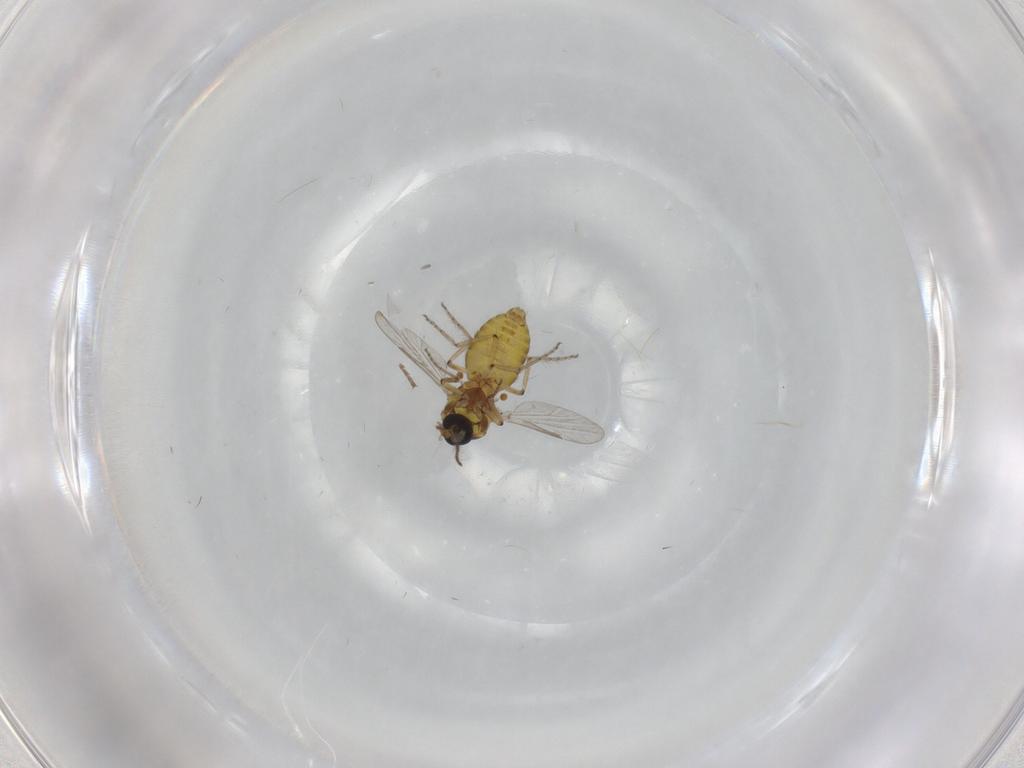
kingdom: Animalia
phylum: Arthropoda
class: Insecta
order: Diptera
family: Ceratopogonidae
